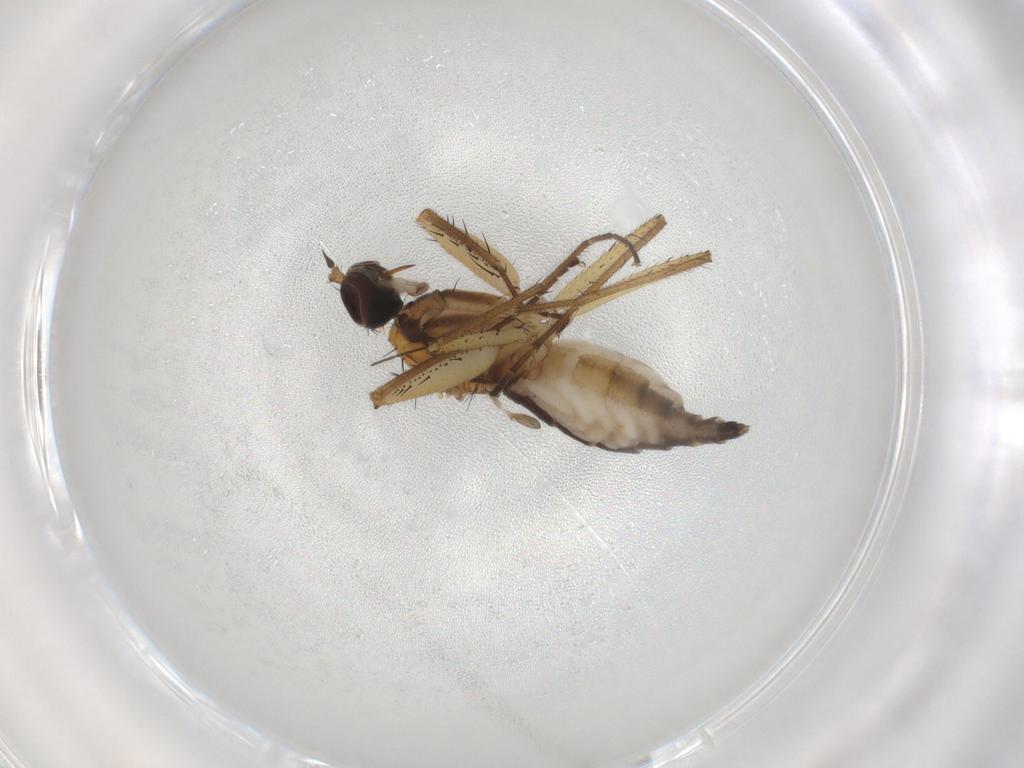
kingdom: Animalia
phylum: Arthropoda
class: Insecta
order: Diptera
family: Empididae
